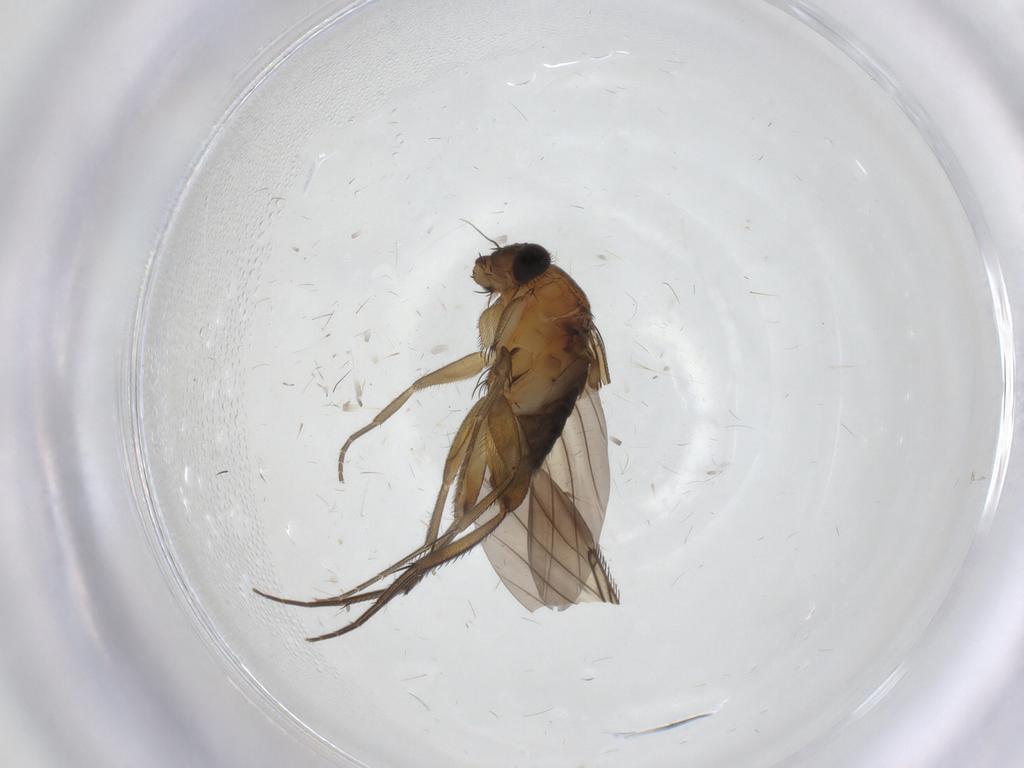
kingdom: Animalia
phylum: Arthropoda
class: Insecta
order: Diptera
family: Phoridae
